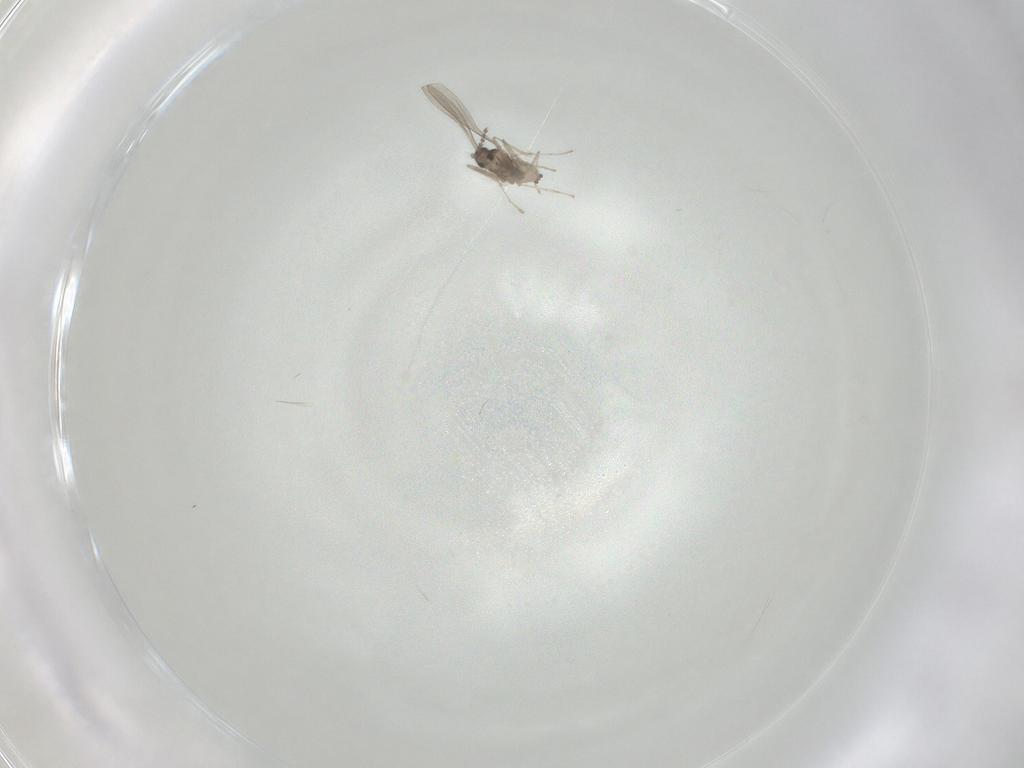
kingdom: Animalia
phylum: Arthropoda
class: Insecta
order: Diptera
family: Cecidomyiidae
